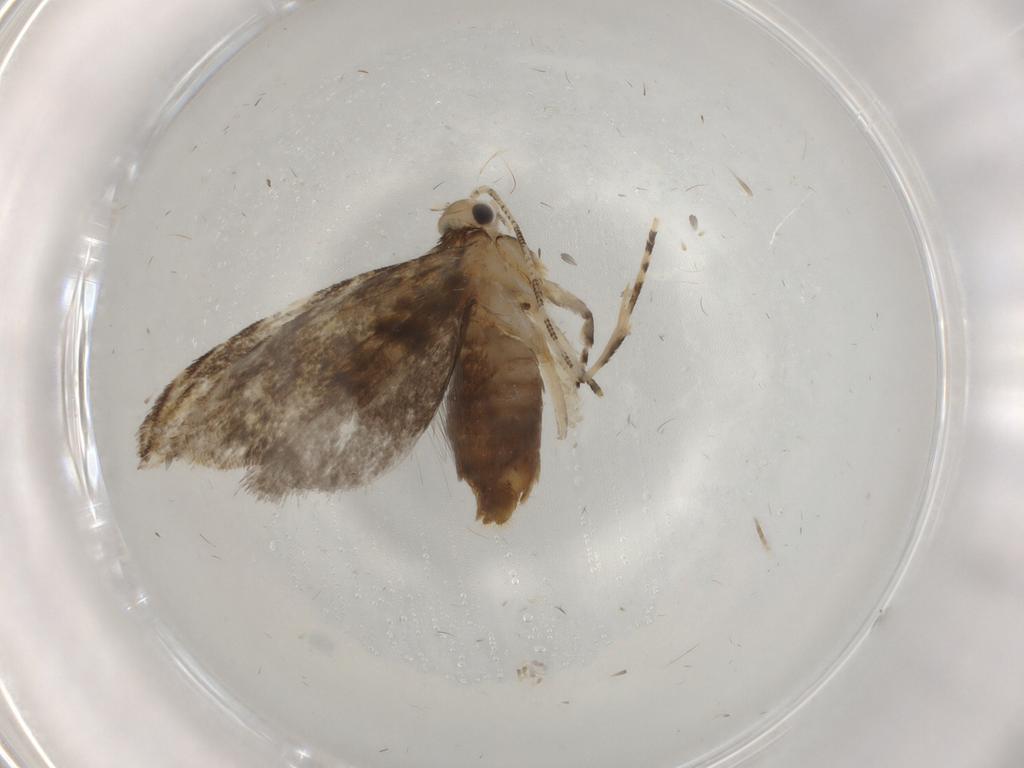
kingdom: Animalia
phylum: Arthropoda
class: Insecta
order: Lepidoptera
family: Tineidae
